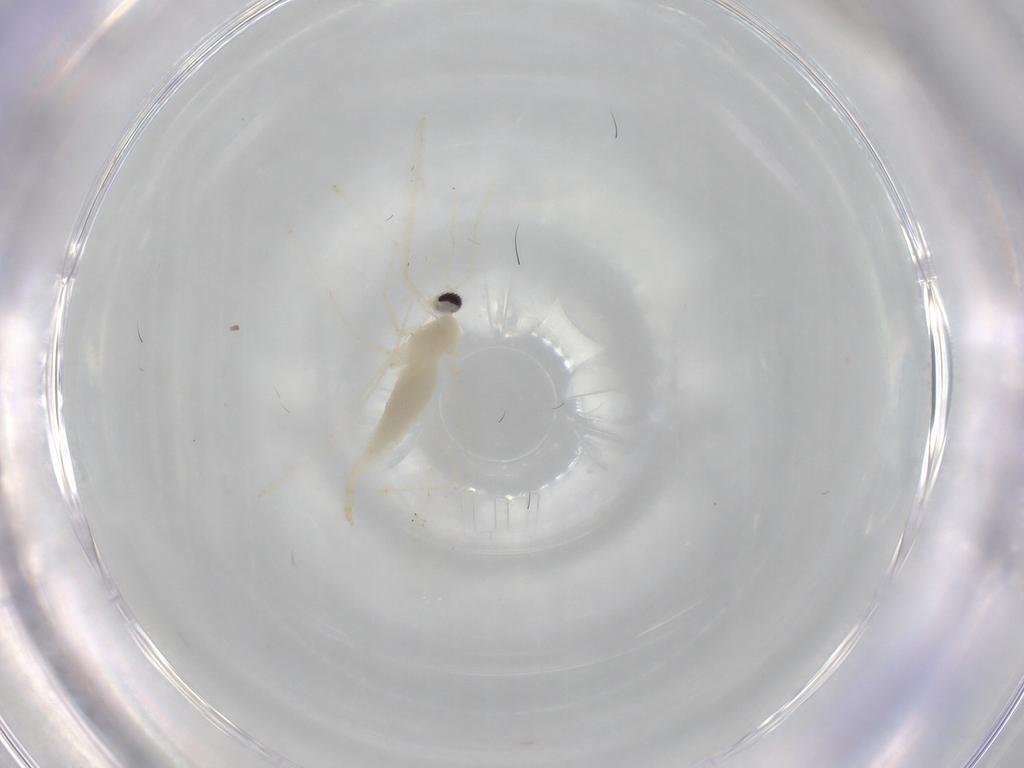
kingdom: Animalia
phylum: Arthropoda
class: Insecta
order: Diptera
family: Cecidomyiidae
